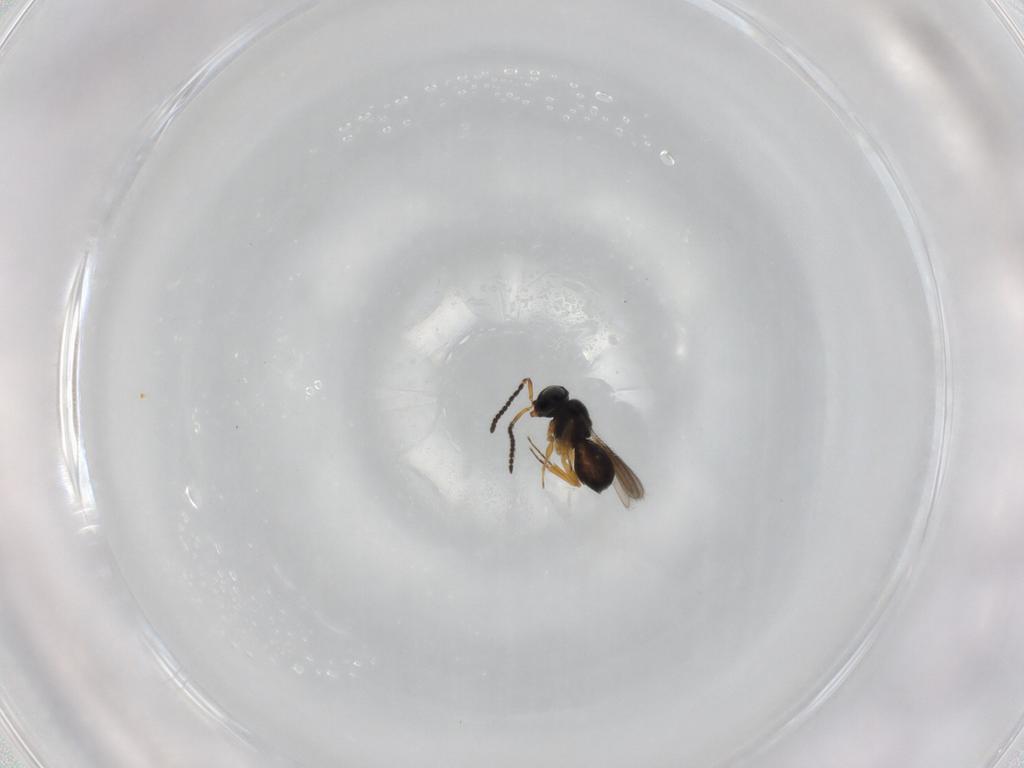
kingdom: Animalia
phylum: Arthropoda
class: Insecta
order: Hymenoptera
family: Scelionidae
